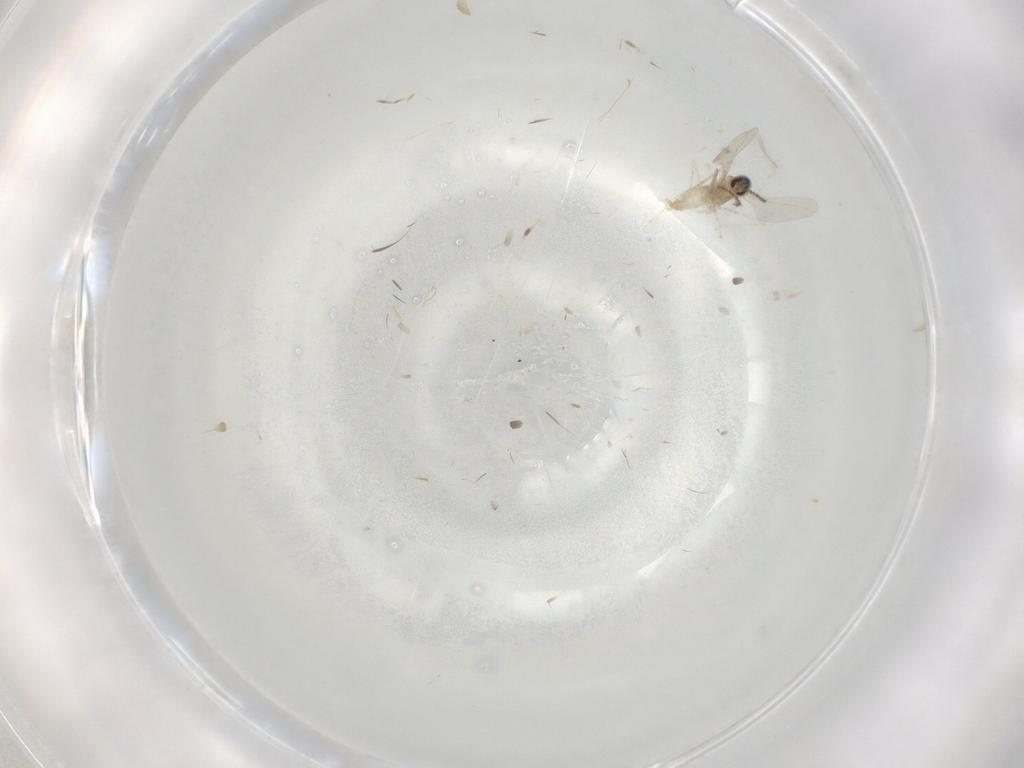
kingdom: Animalia
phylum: Arthropoda
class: Insecta
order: Diptera
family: Cecidomyiidae
